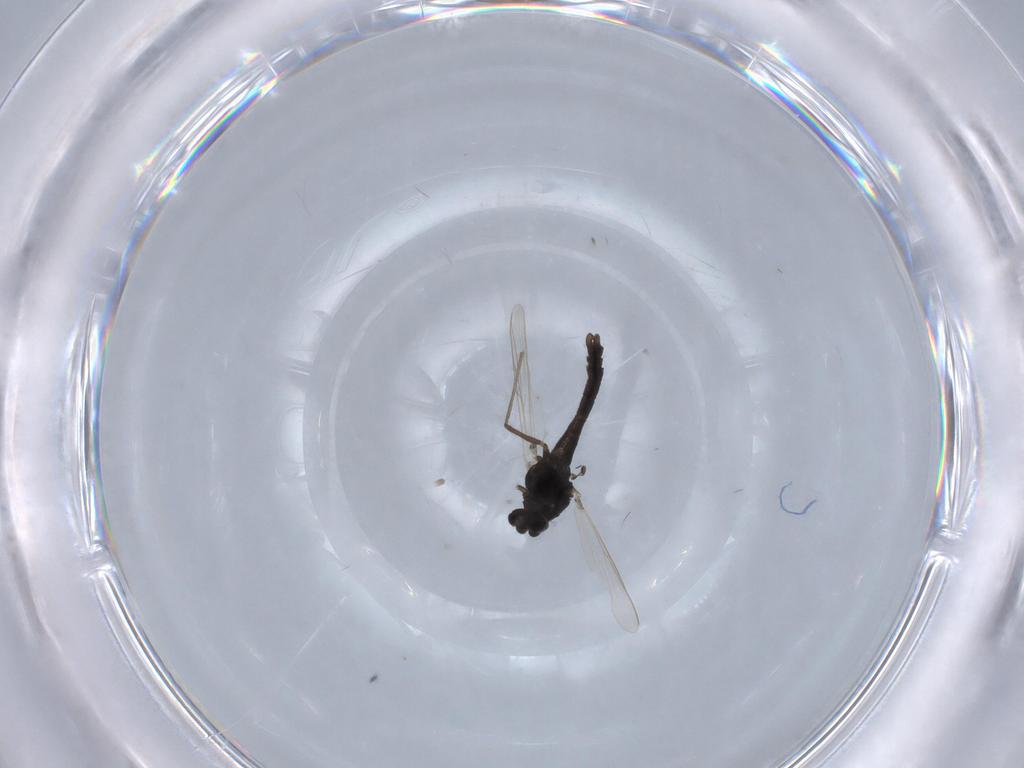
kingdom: Animalia
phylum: Arthropoda
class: Insecta
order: Diptera
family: Chironomidae
